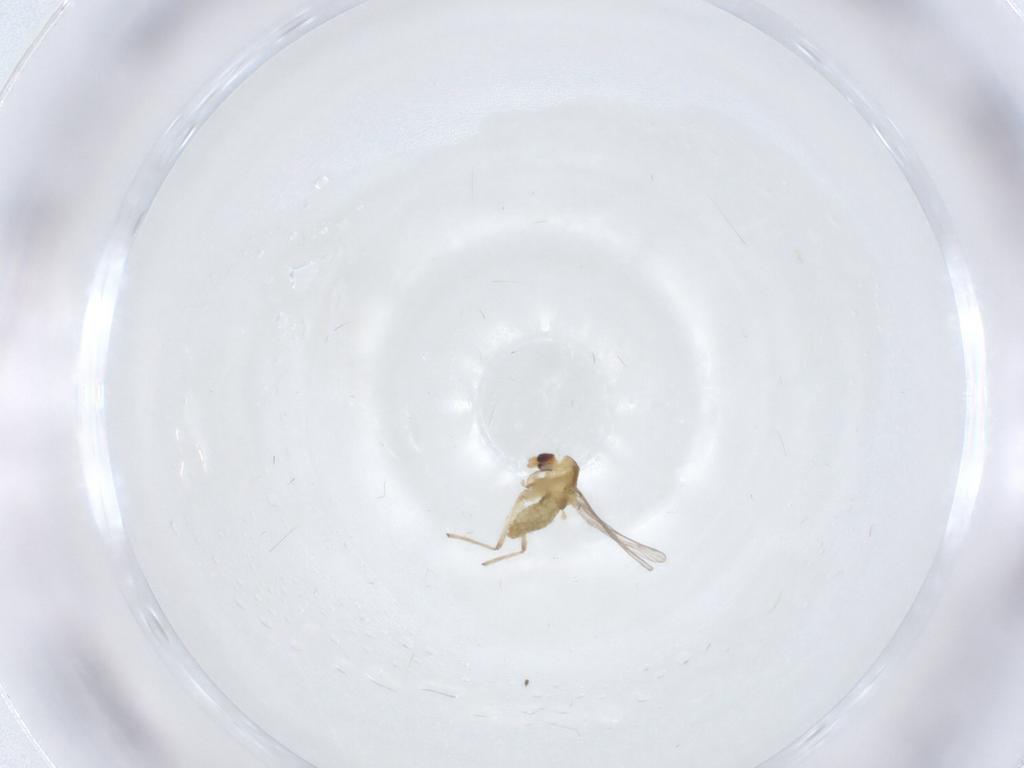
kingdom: Animalia
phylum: Arthropoda
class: Insecta
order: Diptera
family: Chironomidae
